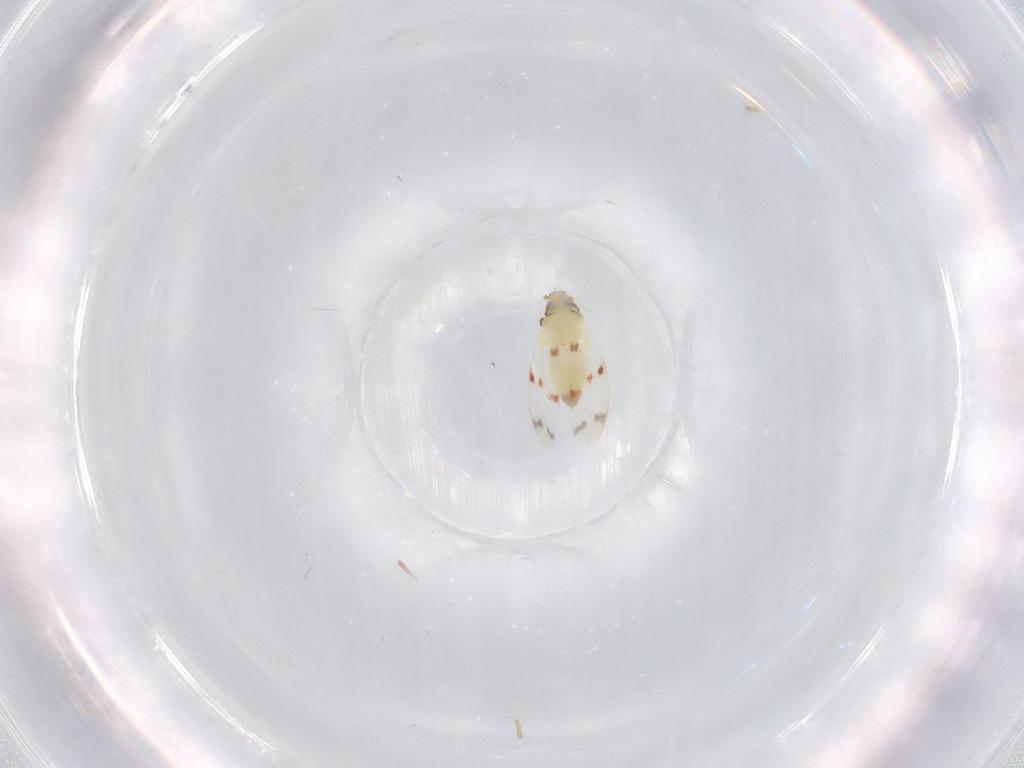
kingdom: Animalia
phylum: Arthropoda
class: Insecta
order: Hemiptera
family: Aleyrodidae
